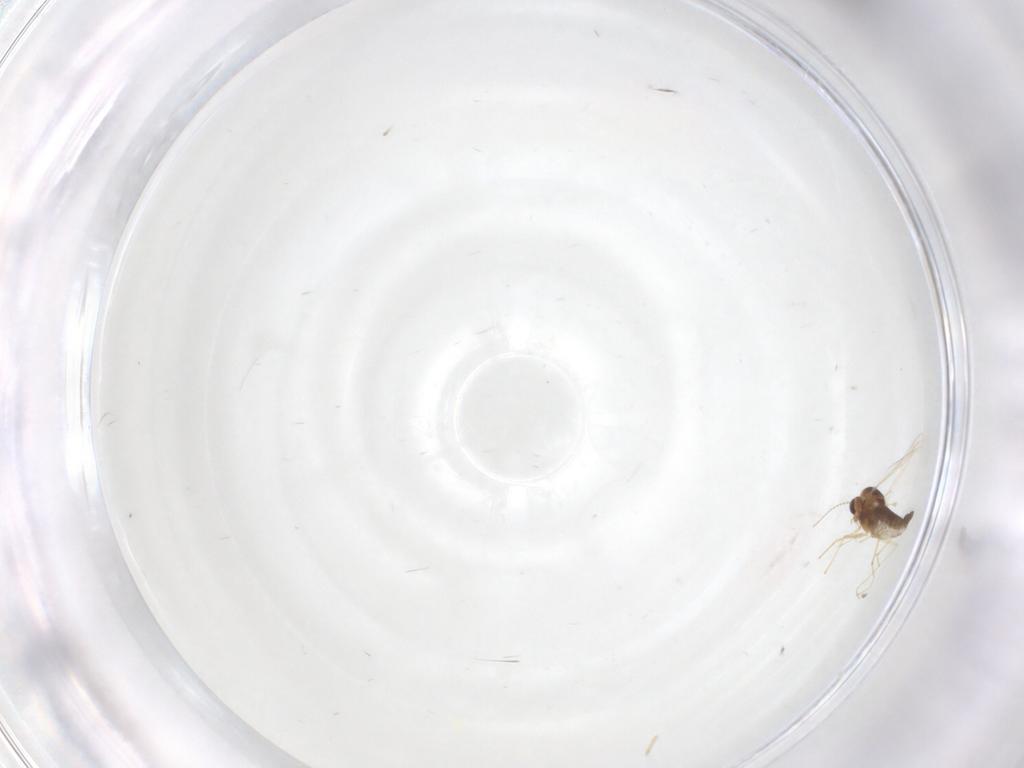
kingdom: Animalia
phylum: Arthropoda
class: Insecta
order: Diptera
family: Chironomidae
